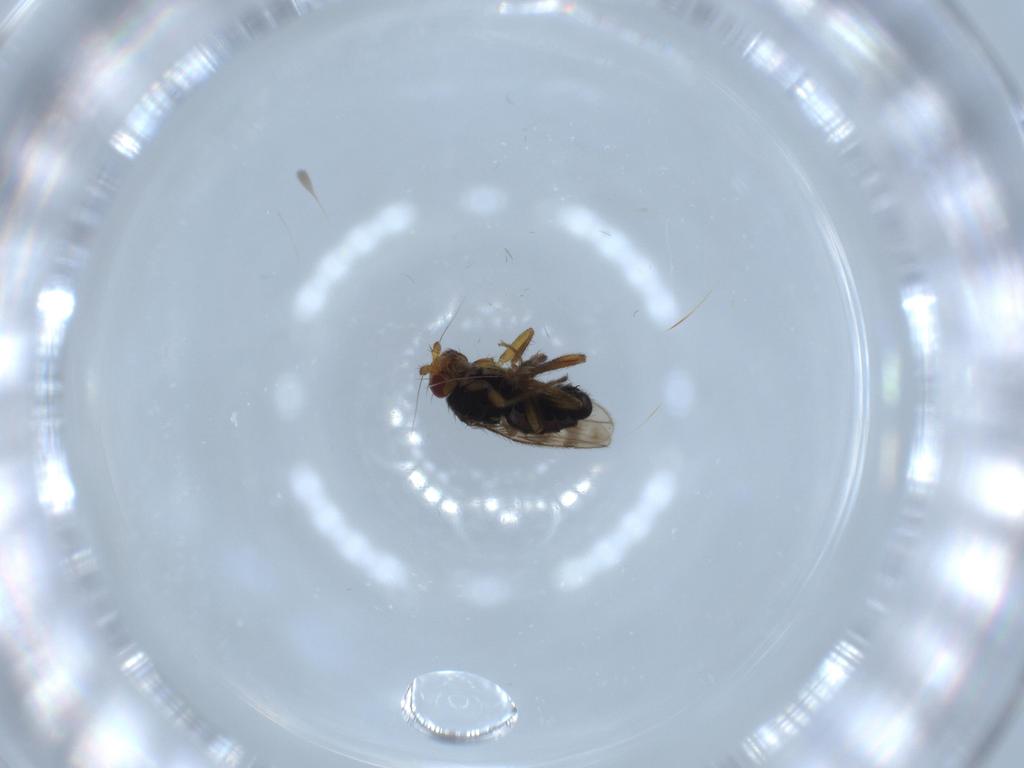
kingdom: Animalia
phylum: Arthropoda
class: Insecta
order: Diptera
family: Sphaeroceridae
